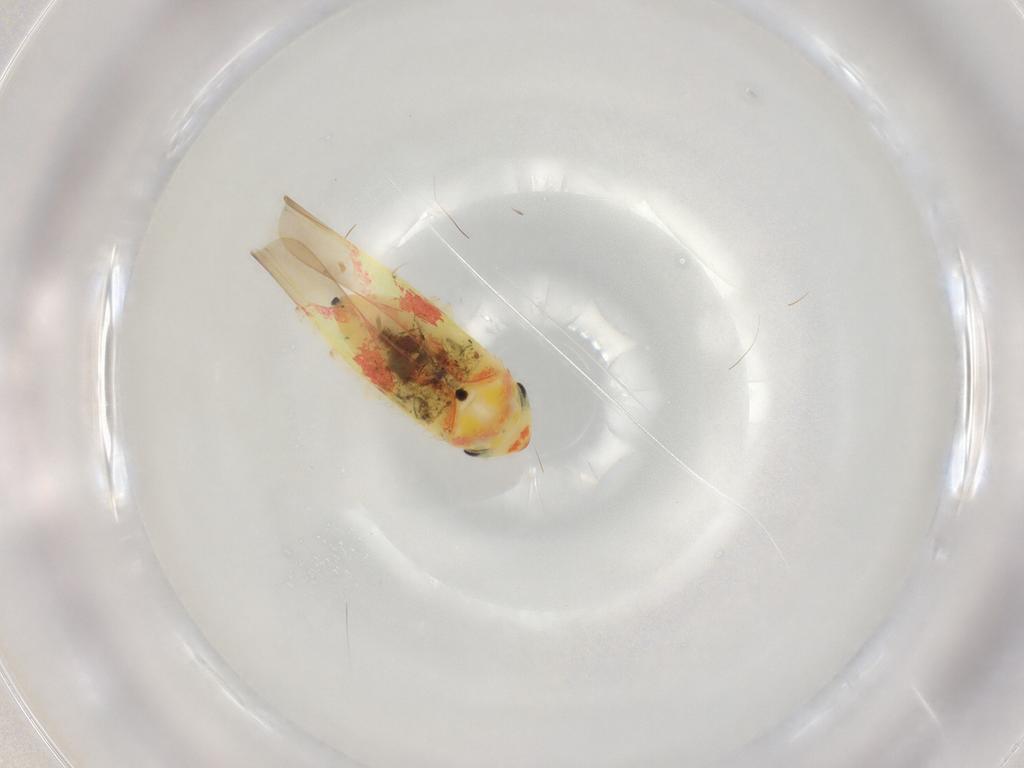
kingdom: Animalia
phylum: Arthropoda
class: Insecta
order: Hemiptera
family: Cicadellidae
